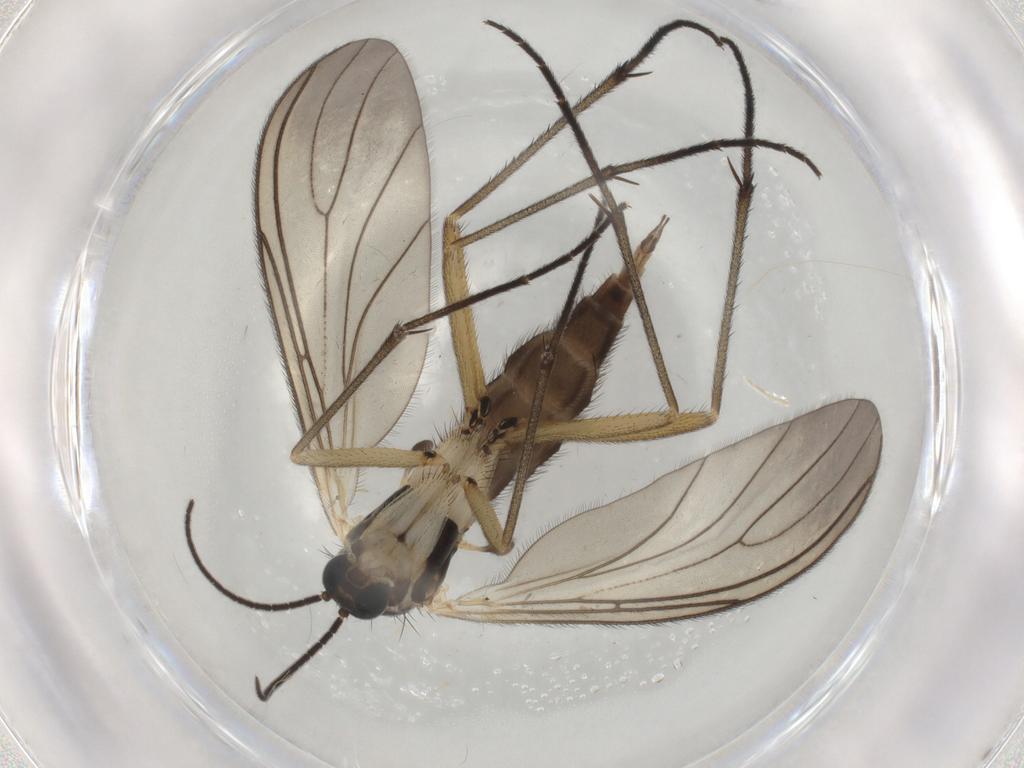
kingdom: Animalia
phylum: Arthropoda
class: Insecta
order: Diptera
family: Sciaridae
